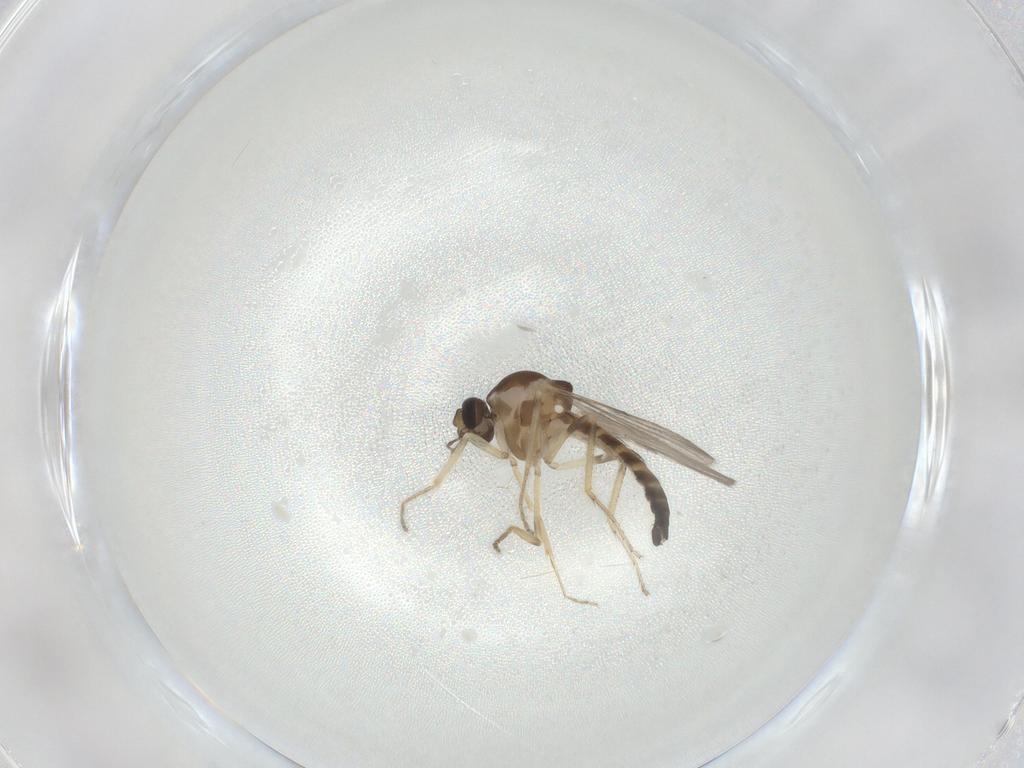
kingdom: Animalia
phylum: Arthropoda
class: Insecta
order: Diptera
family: Ceratopogonidae
